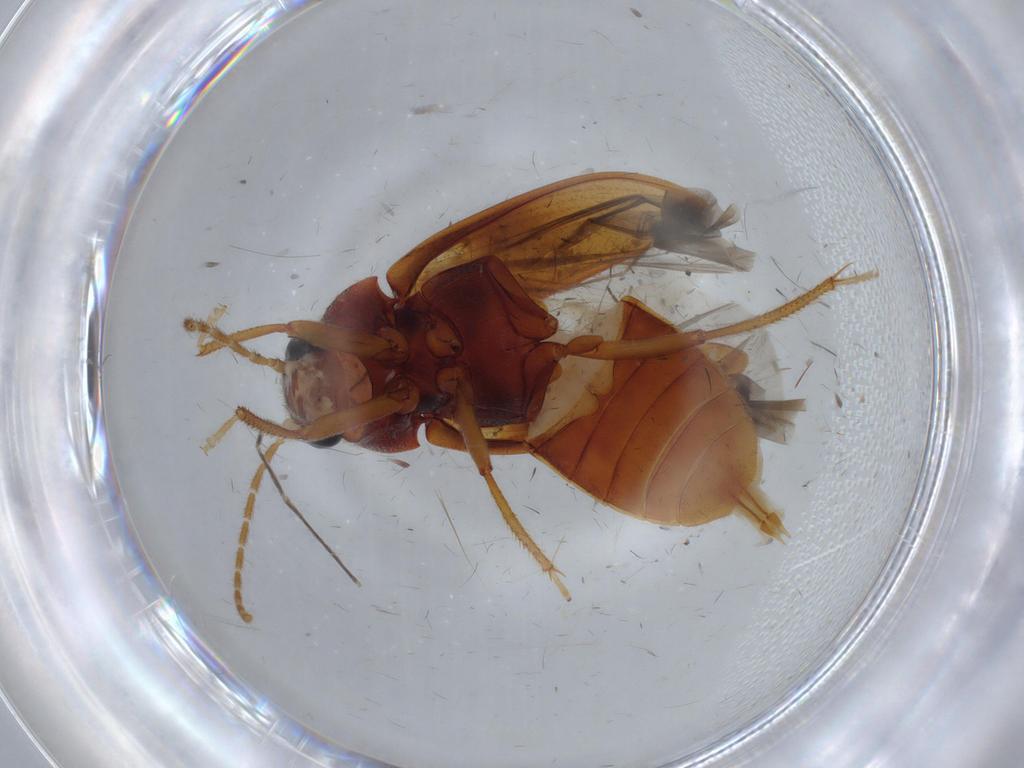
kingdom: Animalia
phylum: Arthropoda
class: Insecta
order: Coleoptera
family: Ptilodactylidae
